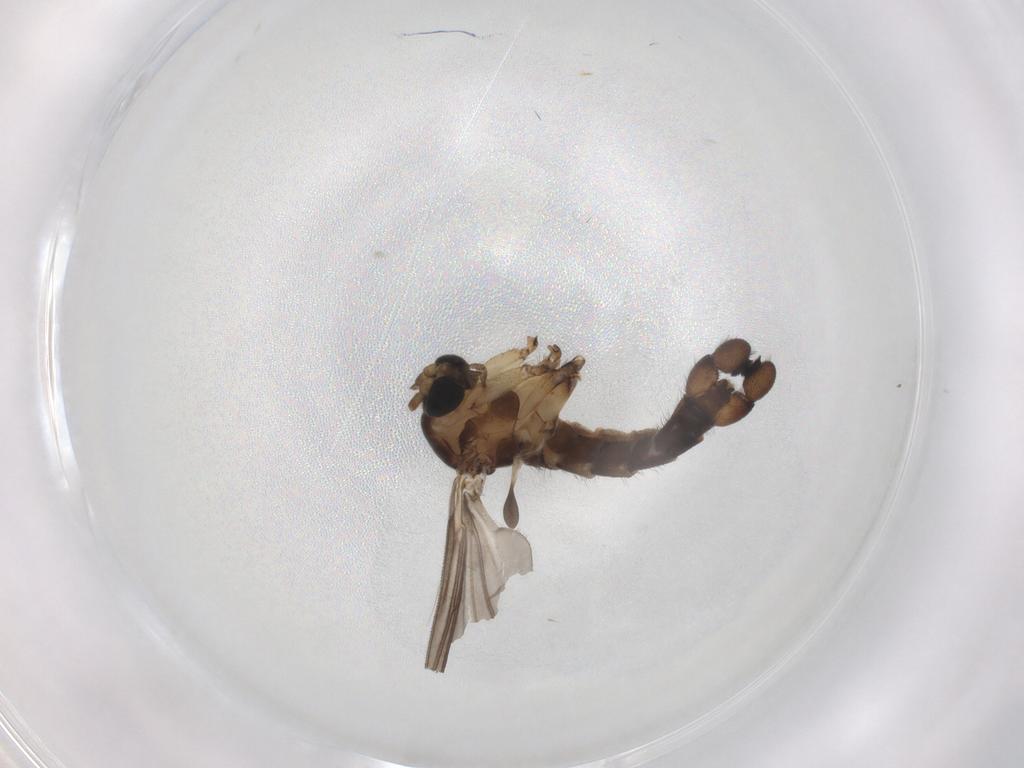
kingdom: Animalia
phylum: Arthropoda
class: Insecta
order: Diptera
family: Sciaridae
